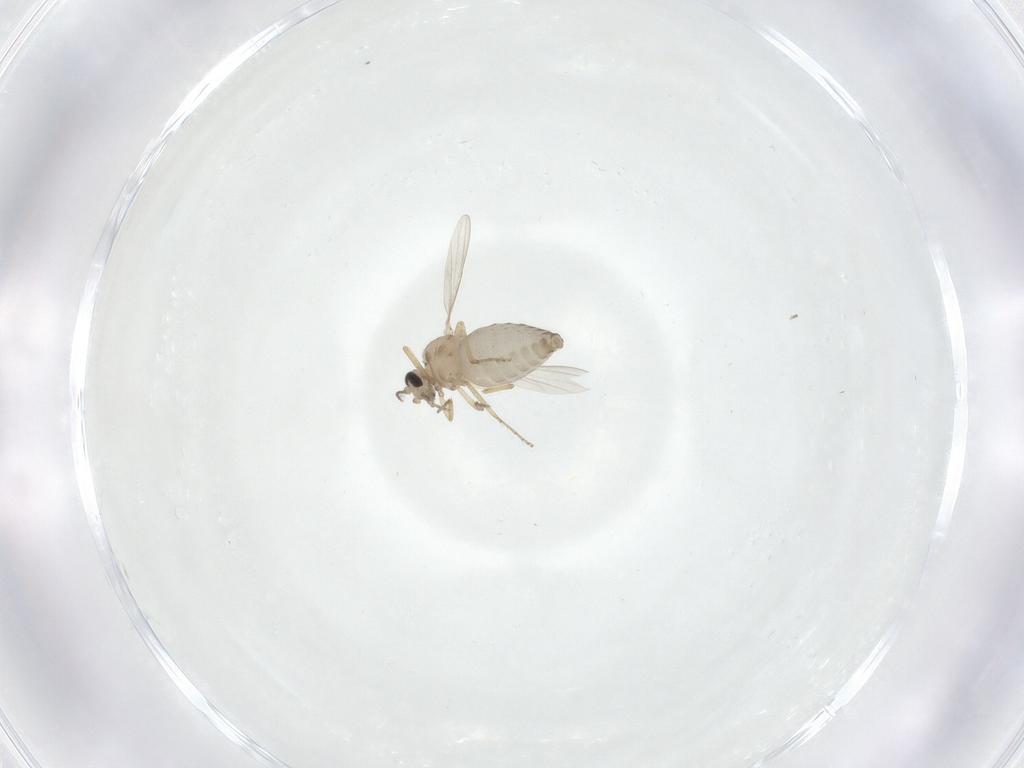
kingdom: Animalia
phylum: Arthropoda
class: Insecta
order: Diptera
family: Ceratopogonidae
